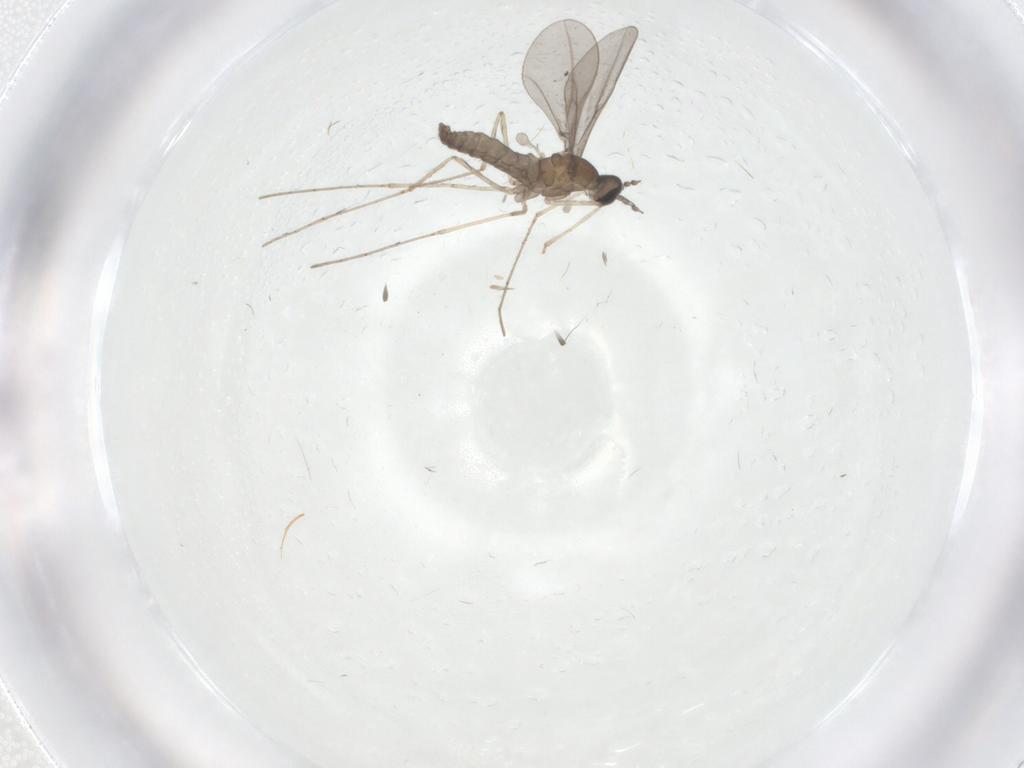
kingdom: Animalia
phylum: Arthropoda
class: Insecta
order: Diptera
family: Cecidomyiidae
